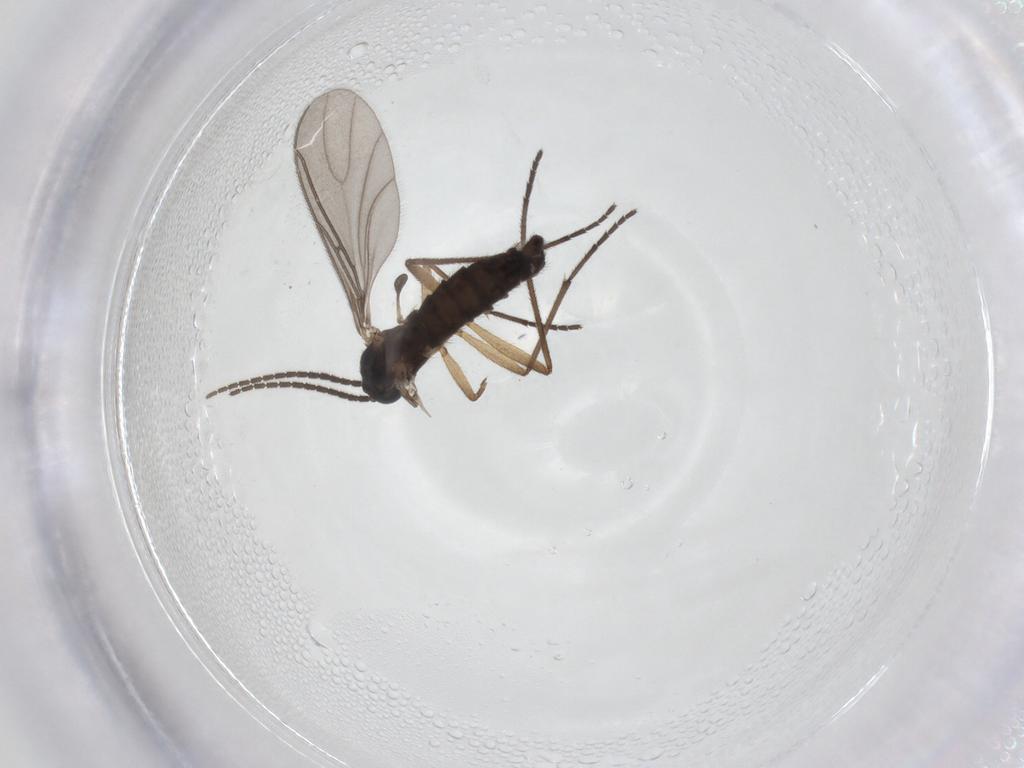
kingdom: Animalia
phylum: Arthropoda
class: Insecta
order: Diptera
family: Sciaridae
